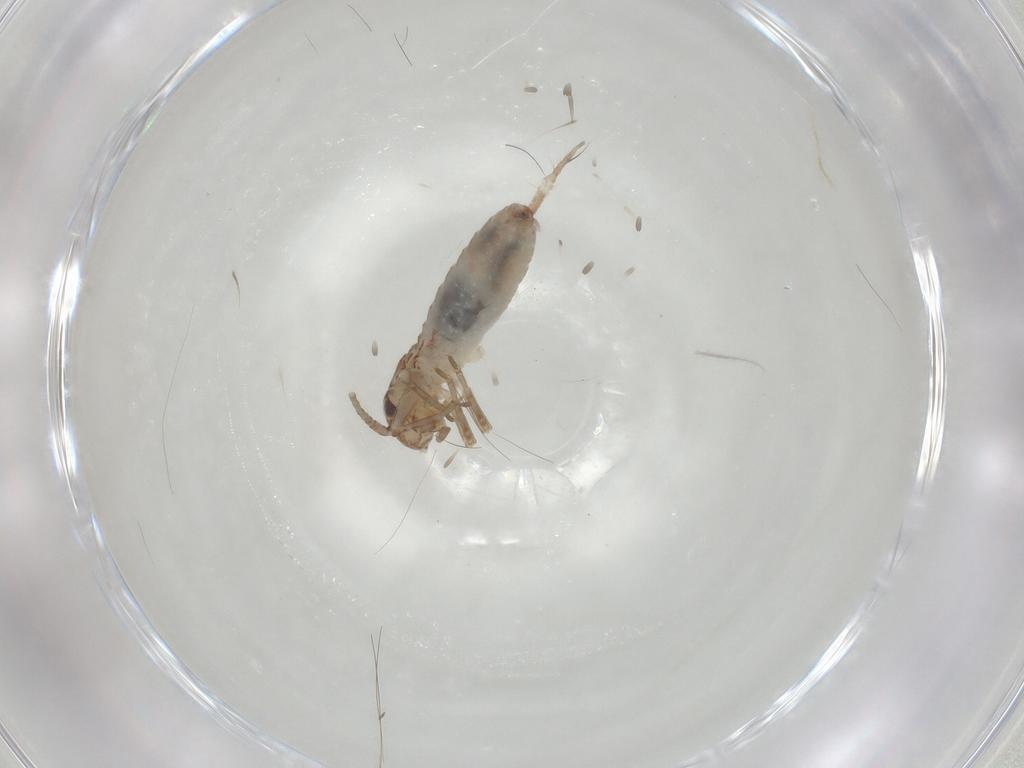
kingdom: Animalia
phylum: Arthropoda
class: Insecta
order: Orthoptera
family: Mogoplistidae
